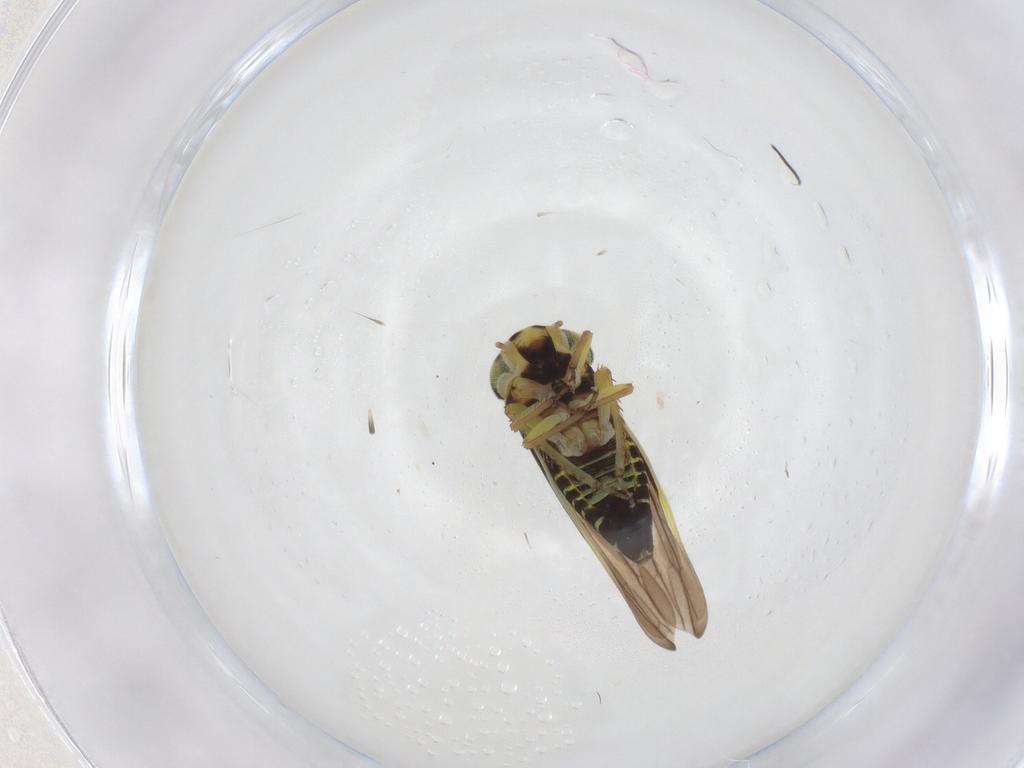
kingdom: Animalia
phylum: Arthropoda
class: Insecta
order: Hemiptera
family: Cicadellidae
